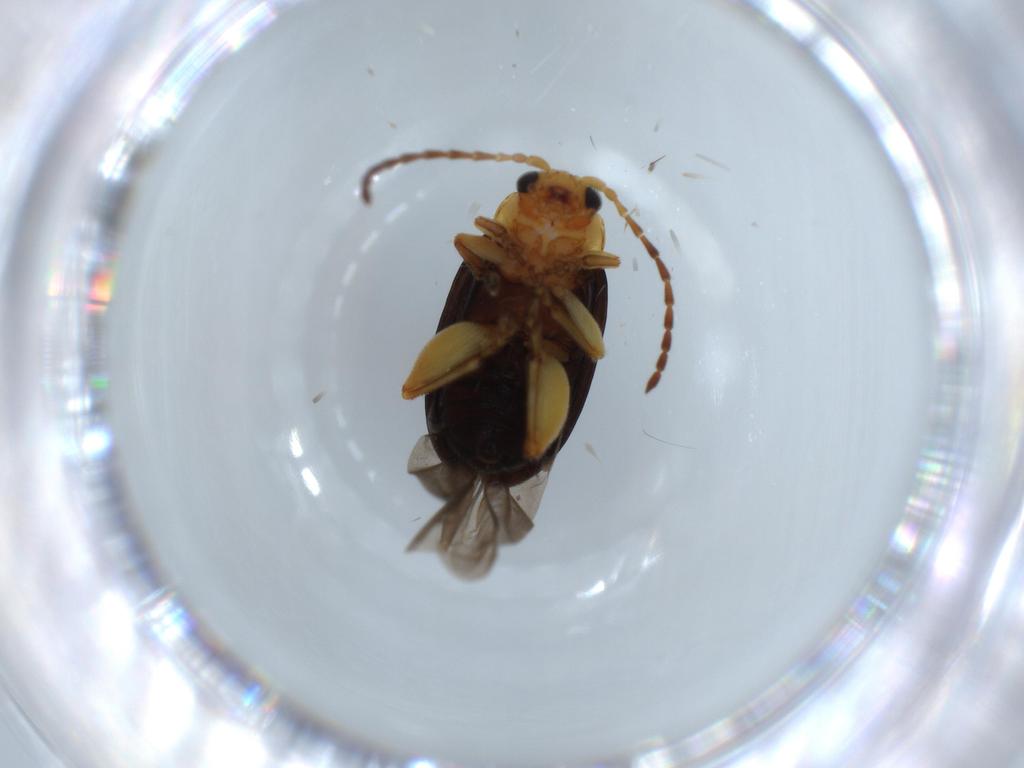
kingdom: Animalia
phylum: Arthropoda
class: Insecta
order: Coleoptera
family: Chrysomelidae
